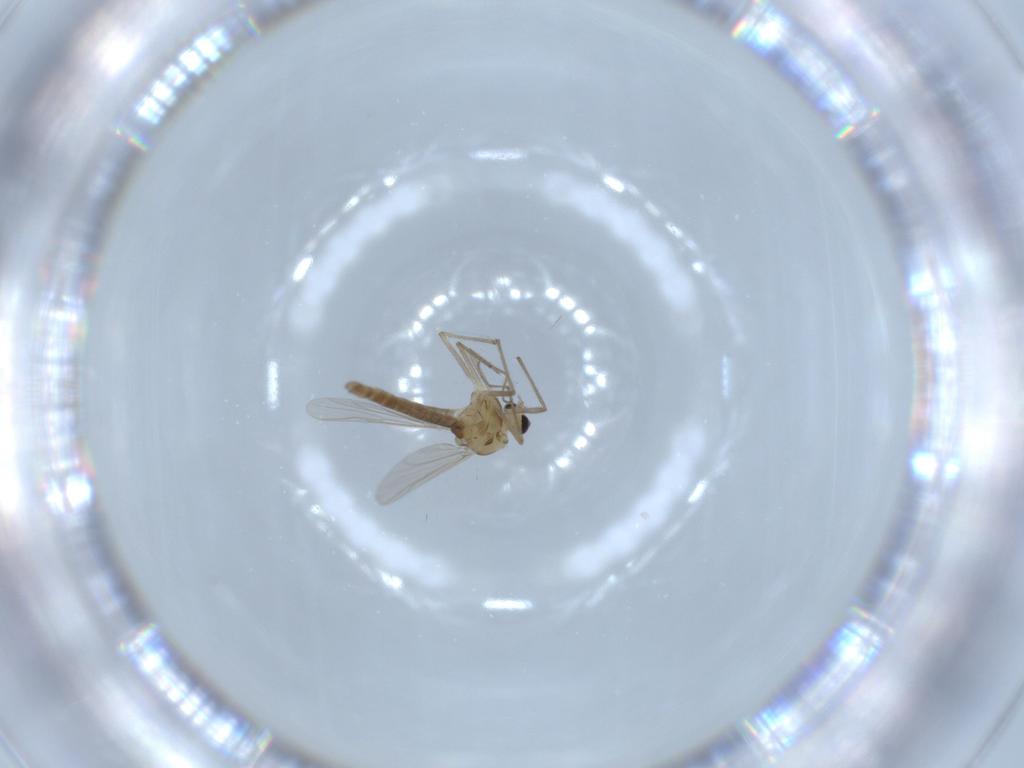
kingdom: Animalia
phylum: Arthropoda
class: Insecta
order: Diptera
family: Chironomidae
